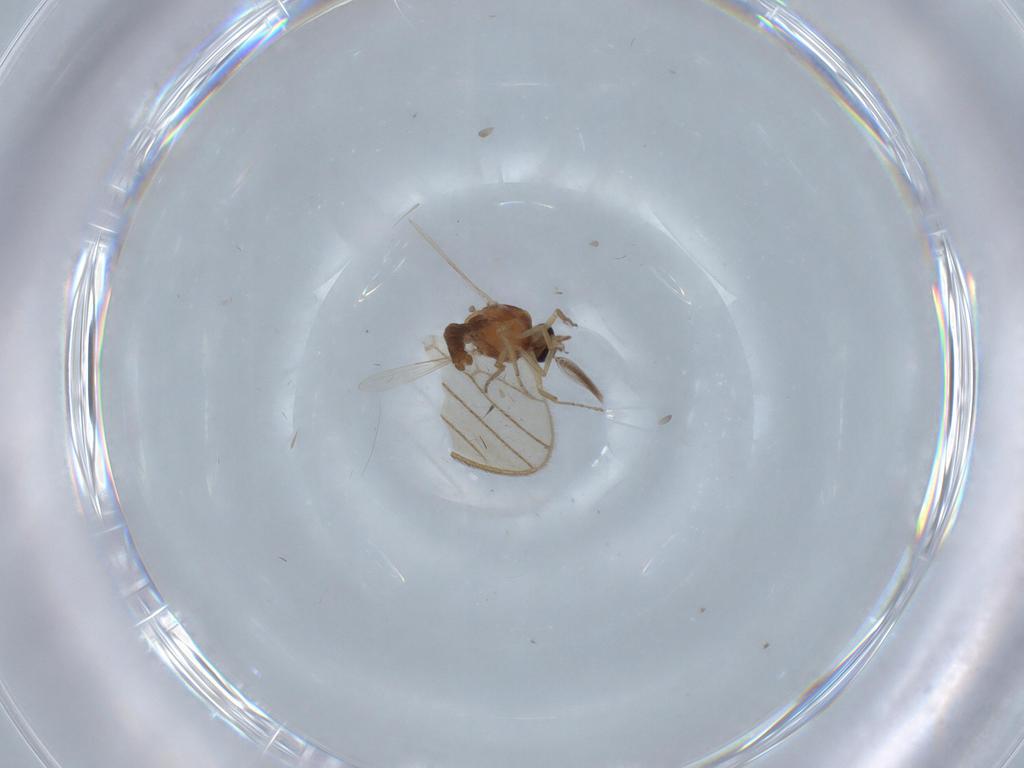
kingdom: Animalia
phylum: Arthropoda
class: Insecta
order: Diptera
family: Ceratopogonidae
